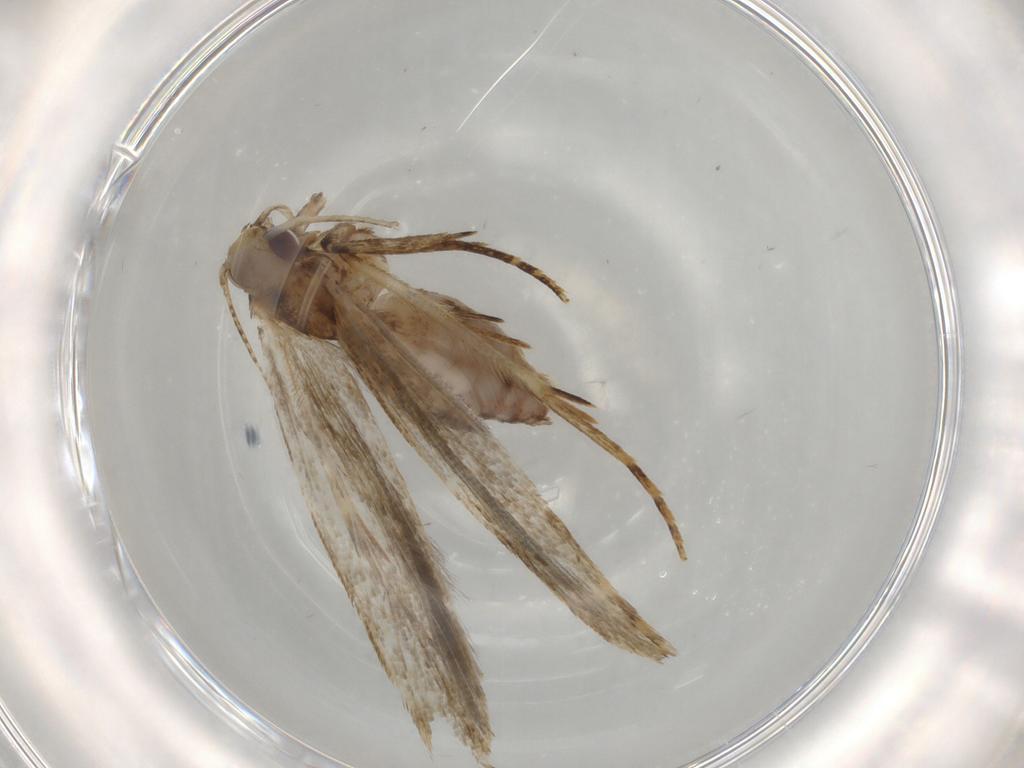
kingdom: Animalia
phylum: Arthropoda
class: Insecta
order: Lepidoptera
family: Gelechiidae
